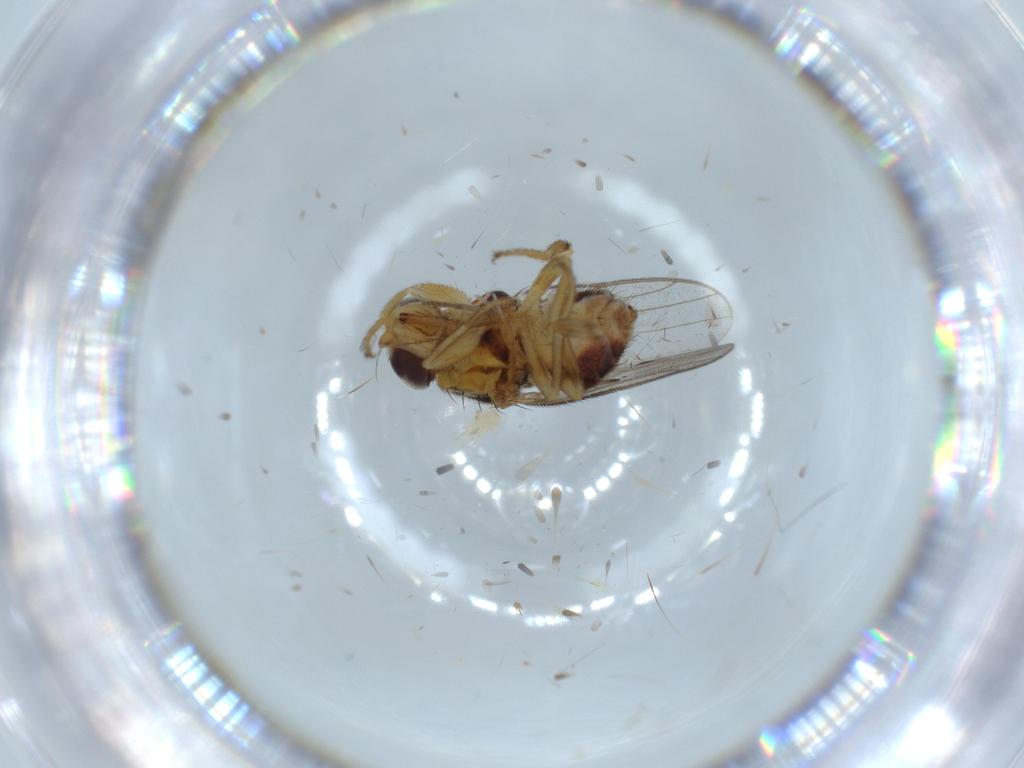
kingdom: Animalia
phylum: Arthropoda
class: Insecta
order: Diptera
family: Chloropidae
